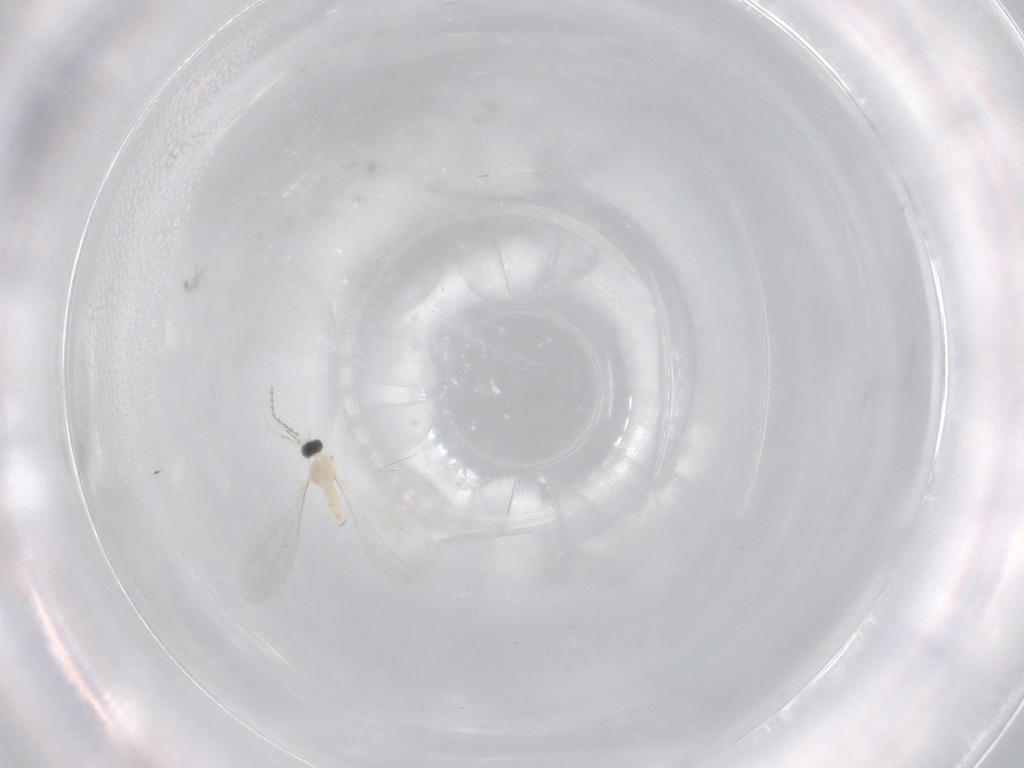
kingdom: Animalia
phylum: Arthropoda
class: Insecta
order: Diptera
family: Cecidomyiidae
